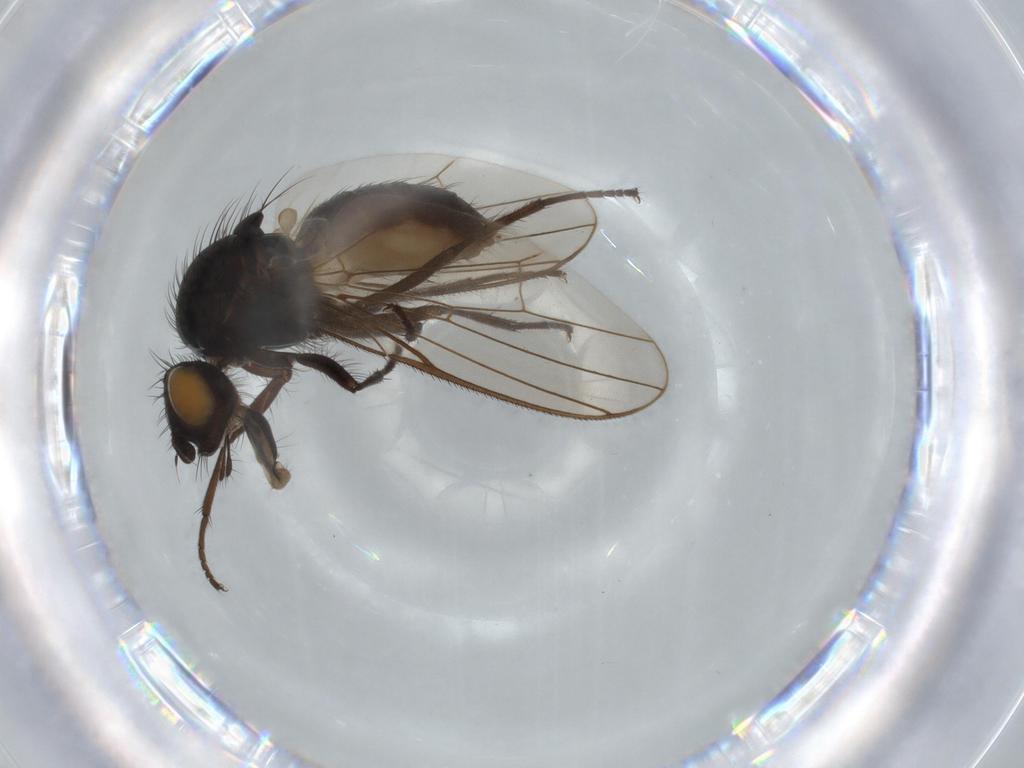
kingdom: Animalia
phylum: Arthropoda
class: Insecta
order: Diptera
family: Anthomyiidae
